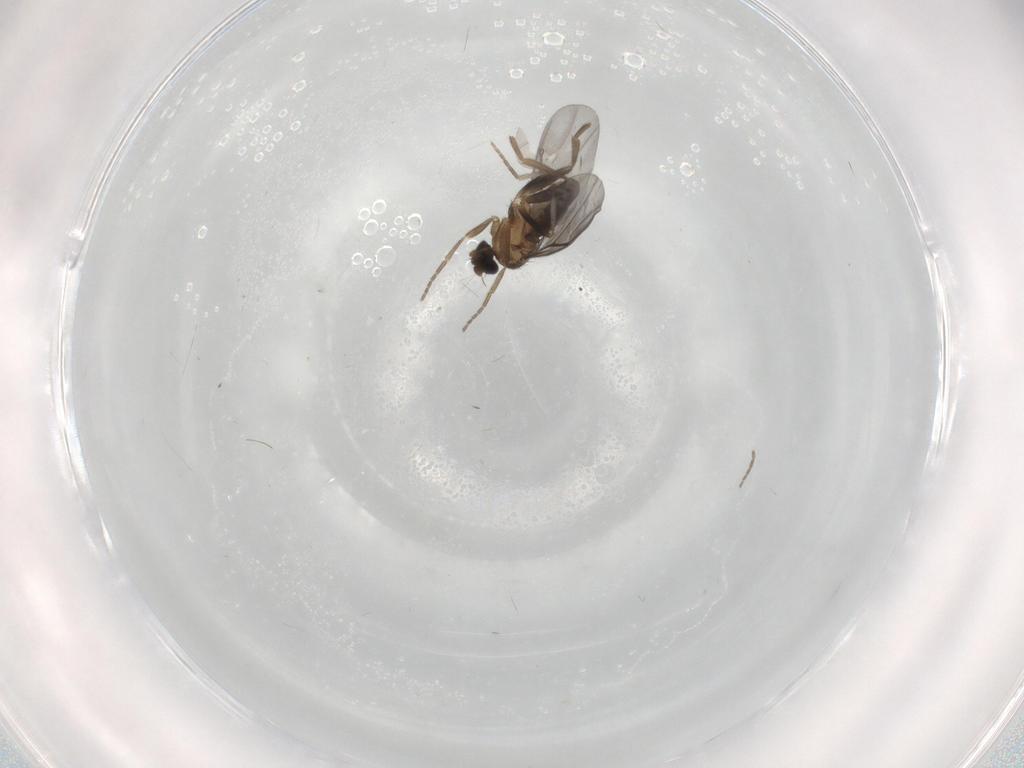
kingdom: Animalia
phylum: Arthropoda
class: Insecta
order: Diptera
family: Phoridae
